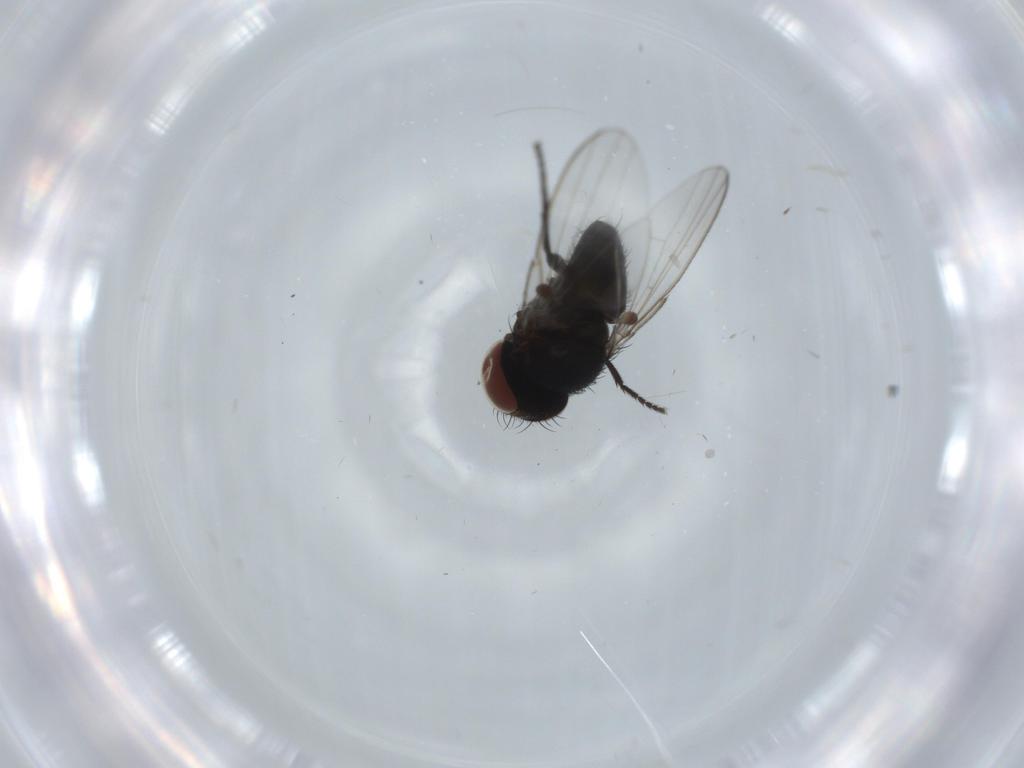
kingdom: Animalia
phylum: Arthropoda
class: Insecta
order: Diptera
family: Milichiidae
